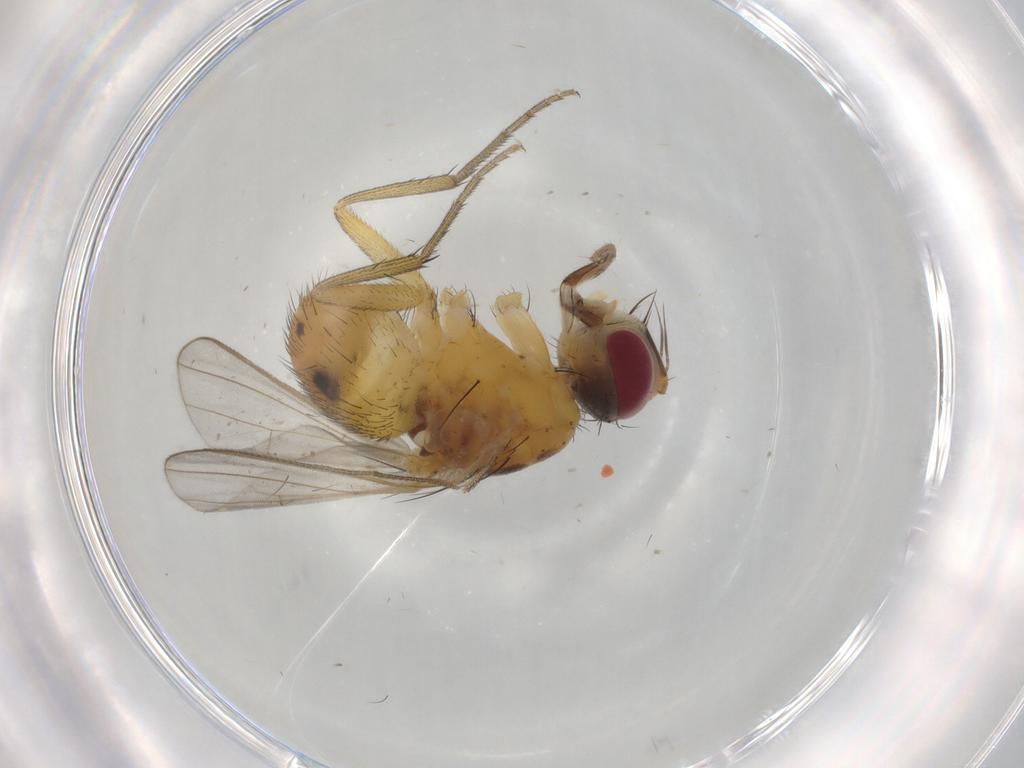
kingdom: Animalia
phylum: Arthropoda
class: Insecta
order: Diptera
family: Muscidae
